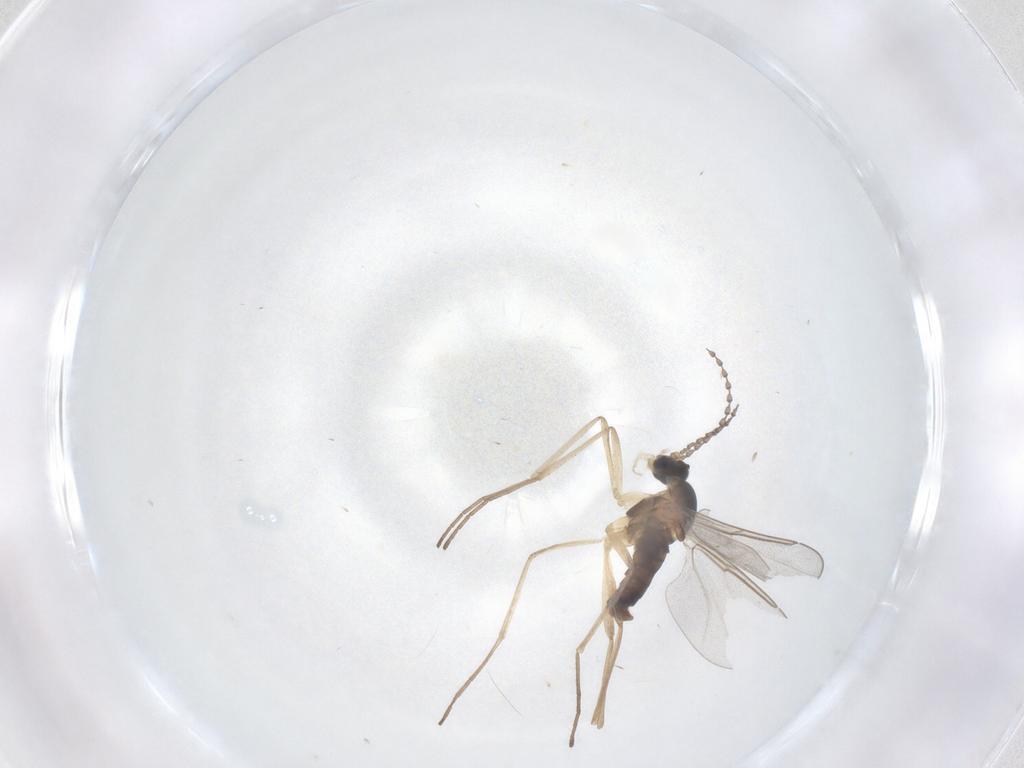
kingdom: Animalia
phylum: Arthropoda
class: Insecta
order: Diptera
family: Cecidomyiidae
